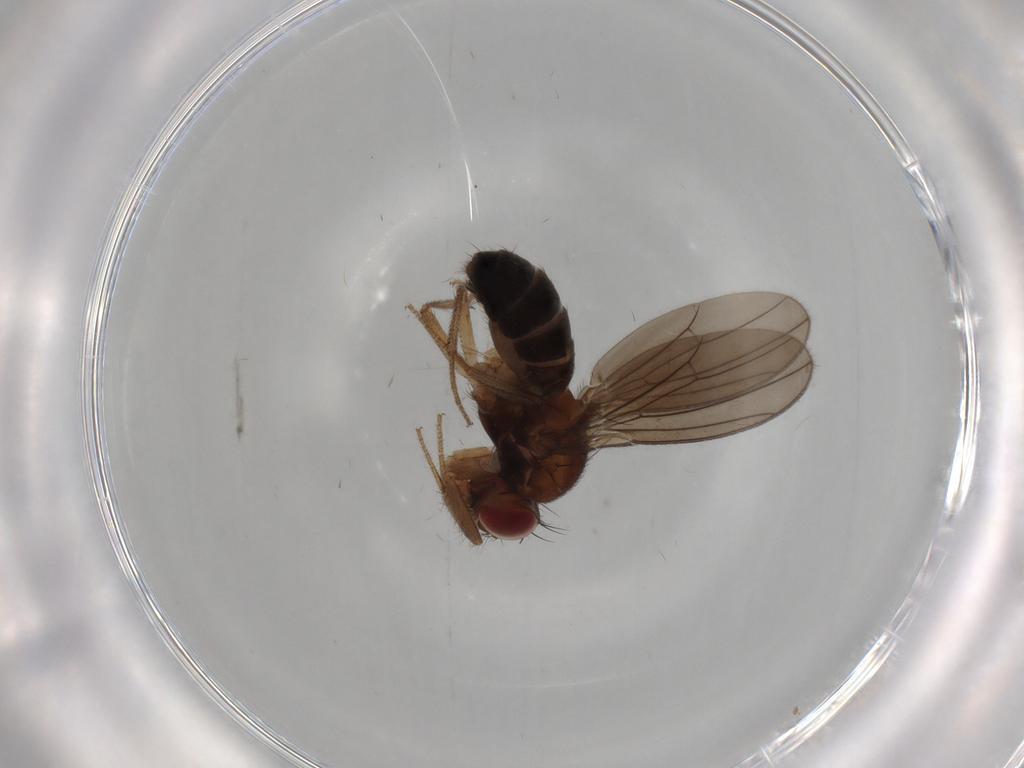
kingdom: Animalia
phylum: Arthropoda
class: Insecta
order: Diptera
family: Drosophilidae
